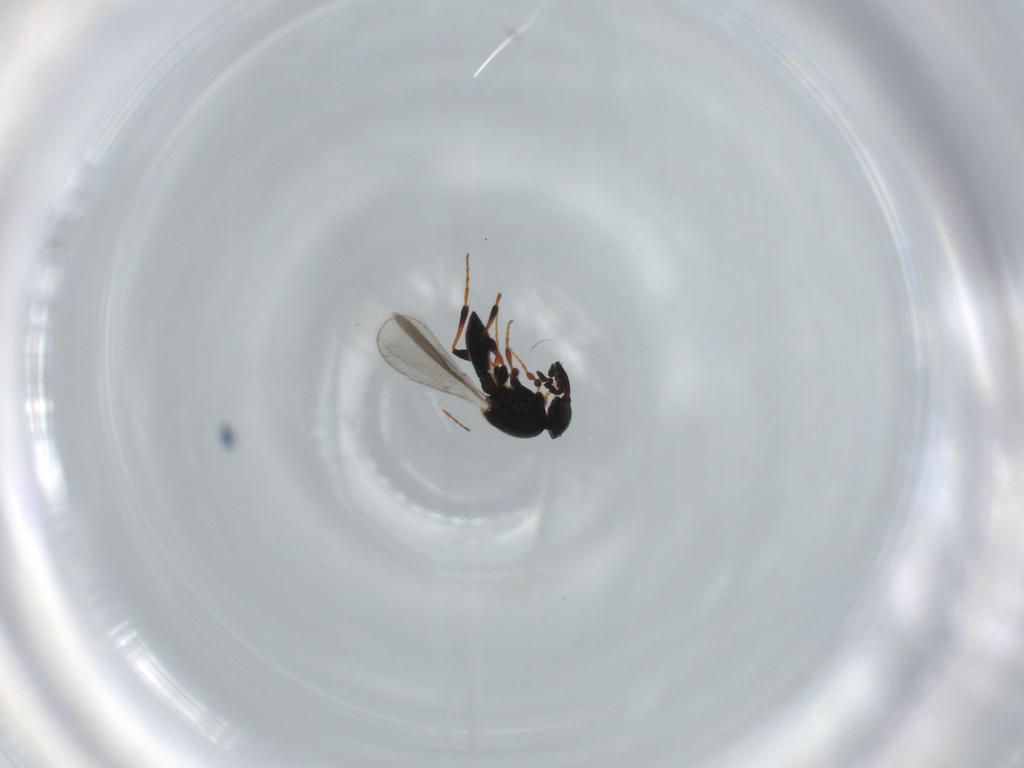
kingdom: Animalia
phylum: Arthropoda
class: Insecta
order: Hymenoptera
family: Platygastridae
